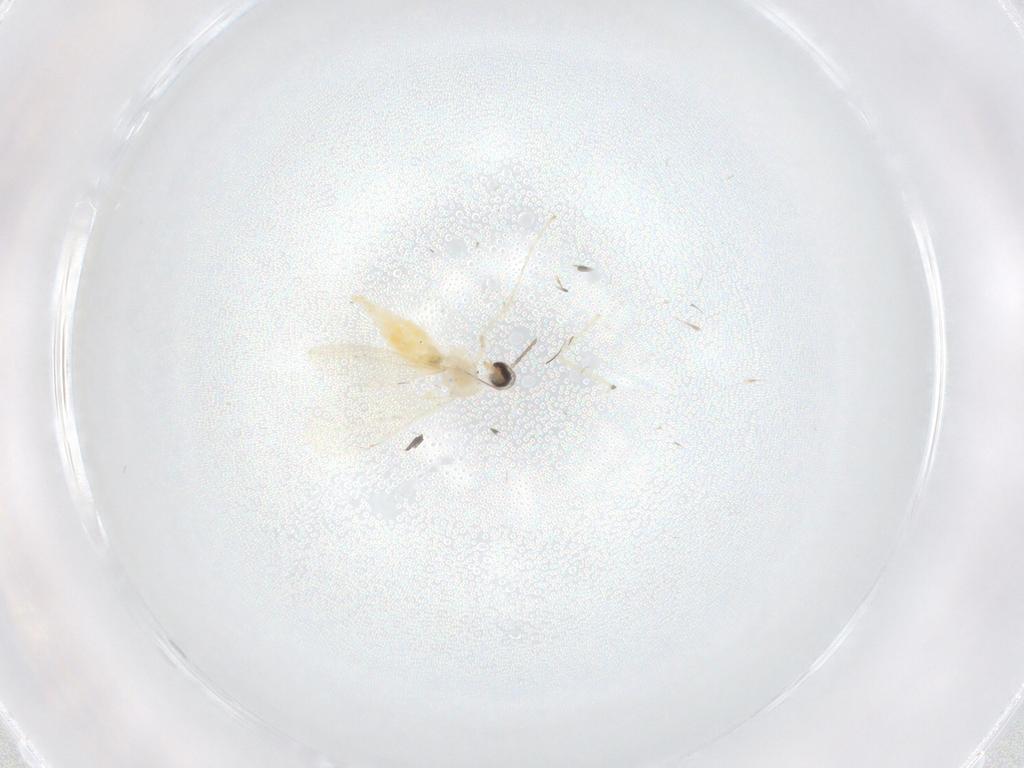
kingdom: Animalia
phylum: Arthropoda
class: Insecta
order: Diptera
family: Cecidomyiidae
